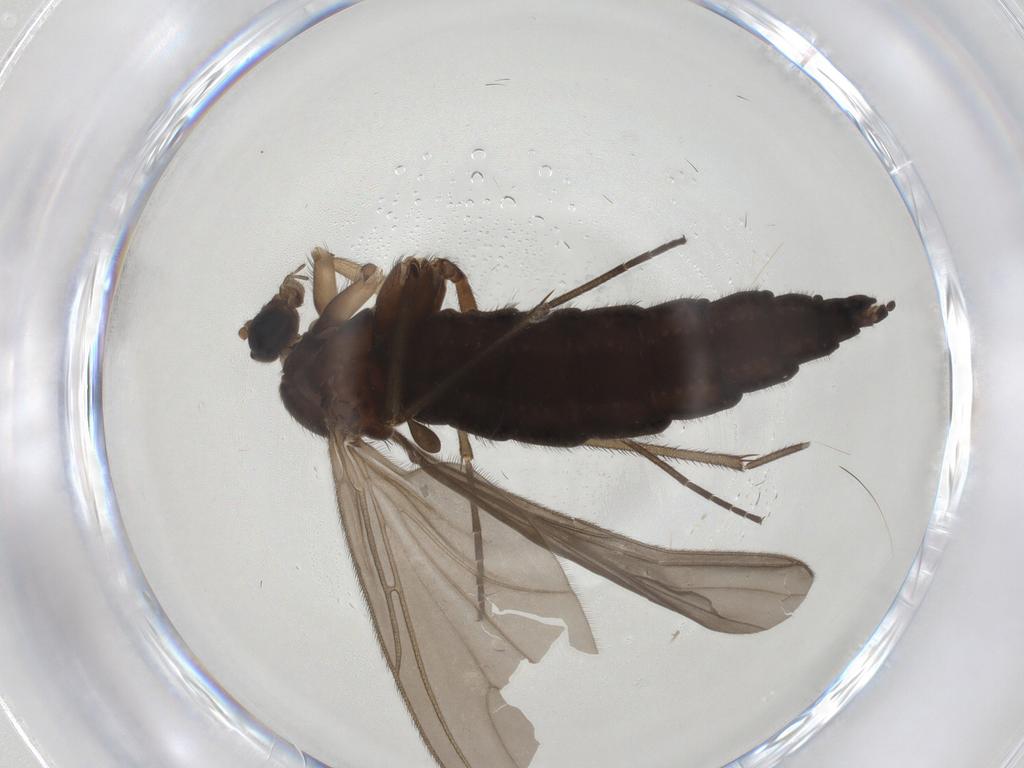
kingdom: Animalia
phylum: Arthropoda
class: Insecta
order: Diptera
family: Sciaridae
